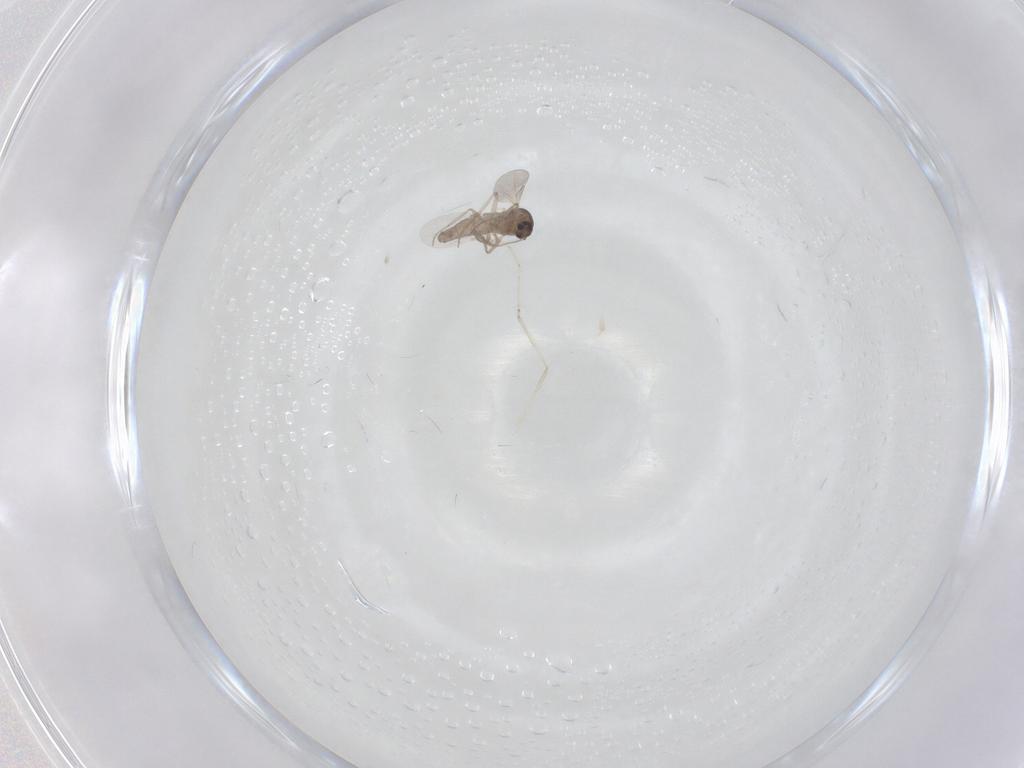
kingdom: Animalia
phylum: Arthropoda
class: Insecta
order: Diptera
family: Cecidomyiidae
